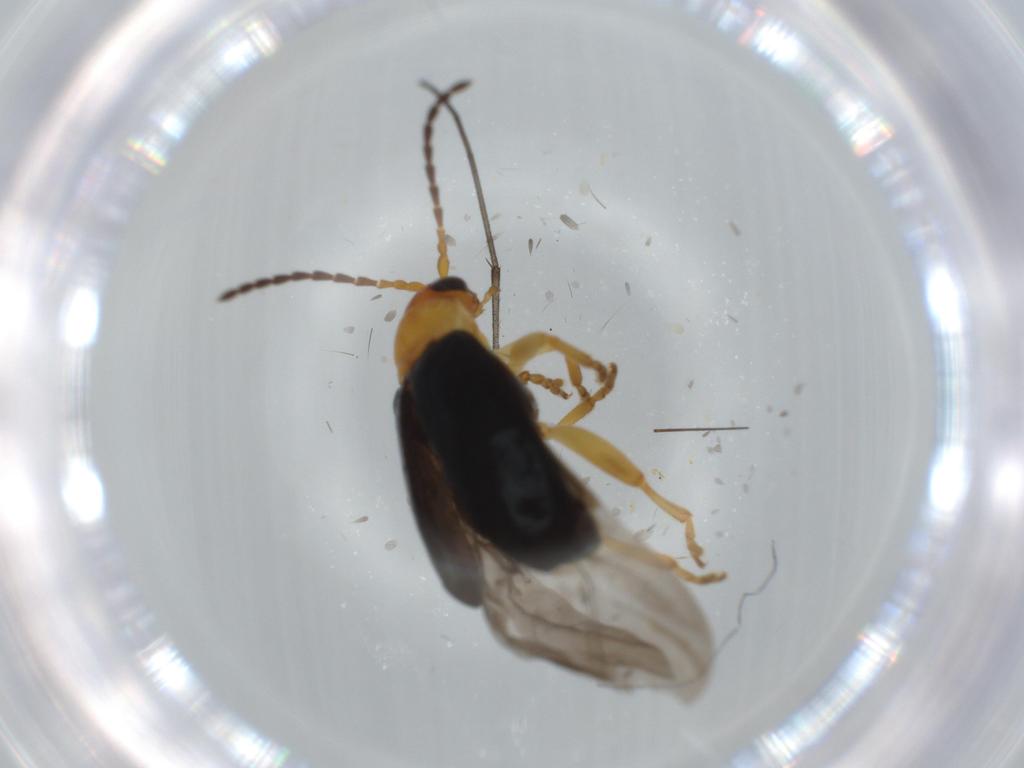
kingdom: Animalia
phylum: Arthropoda
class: Insecta
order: Coleoptera
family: Chrysomelidae
